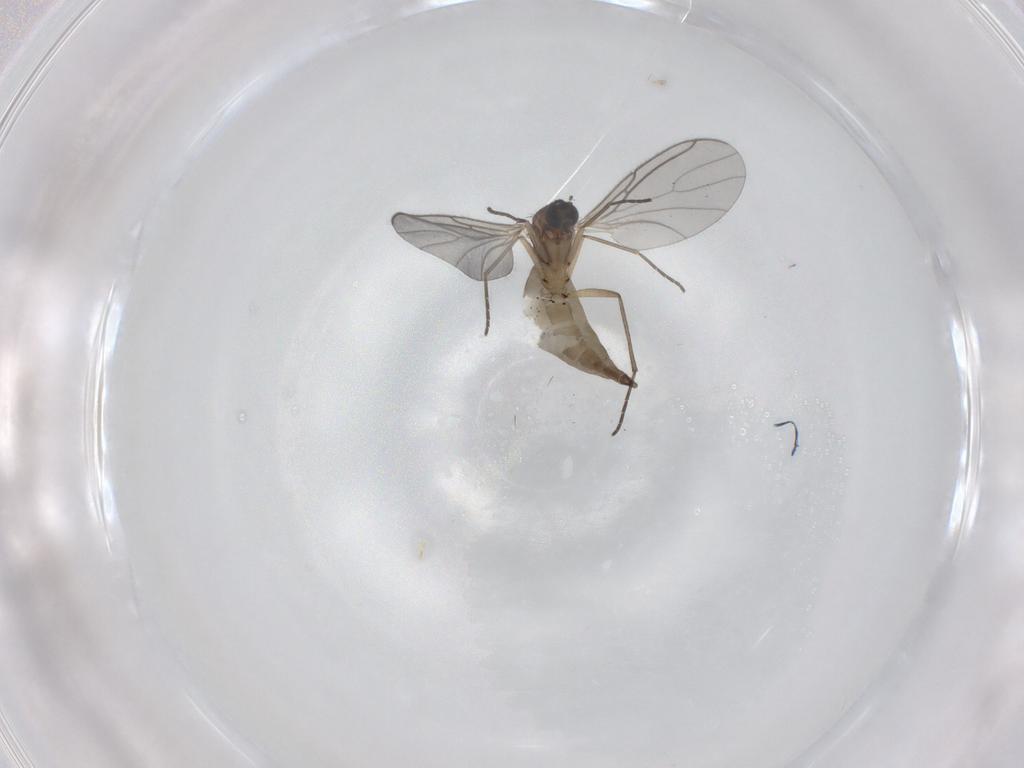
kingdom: Animalia
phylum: Arthropoda
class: Insecta
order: Diptera
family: Sciaridae
